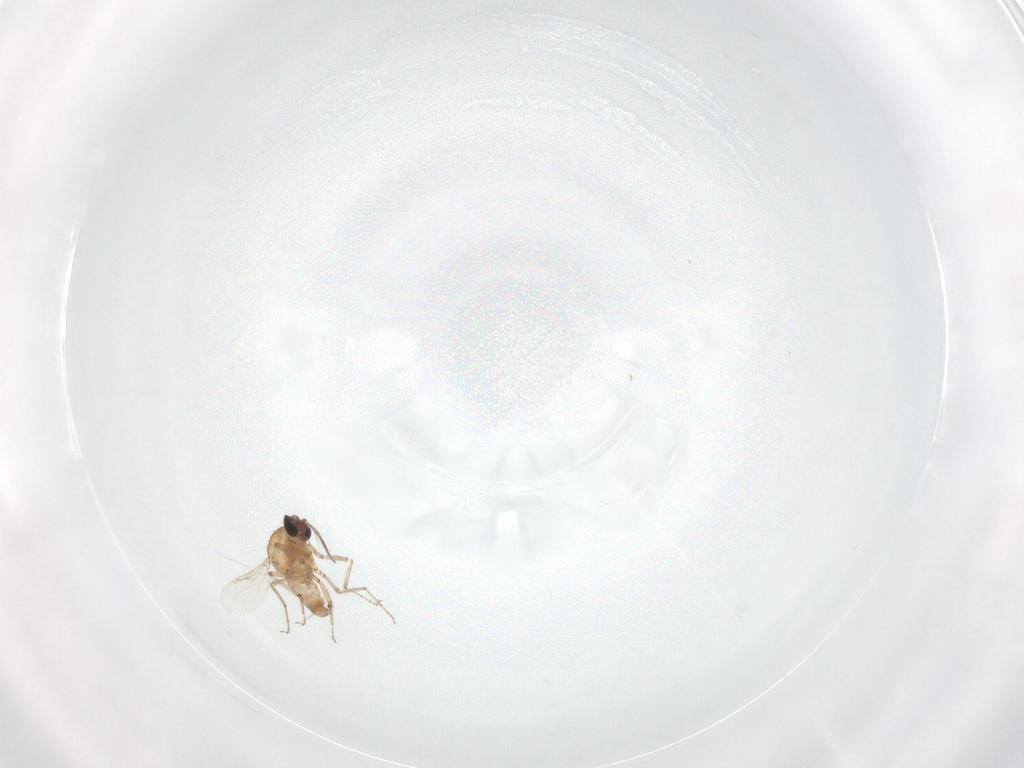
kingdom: Animalia
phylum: Arthropoda
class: Insecta
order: Diptera
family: Ceratopogonidae
